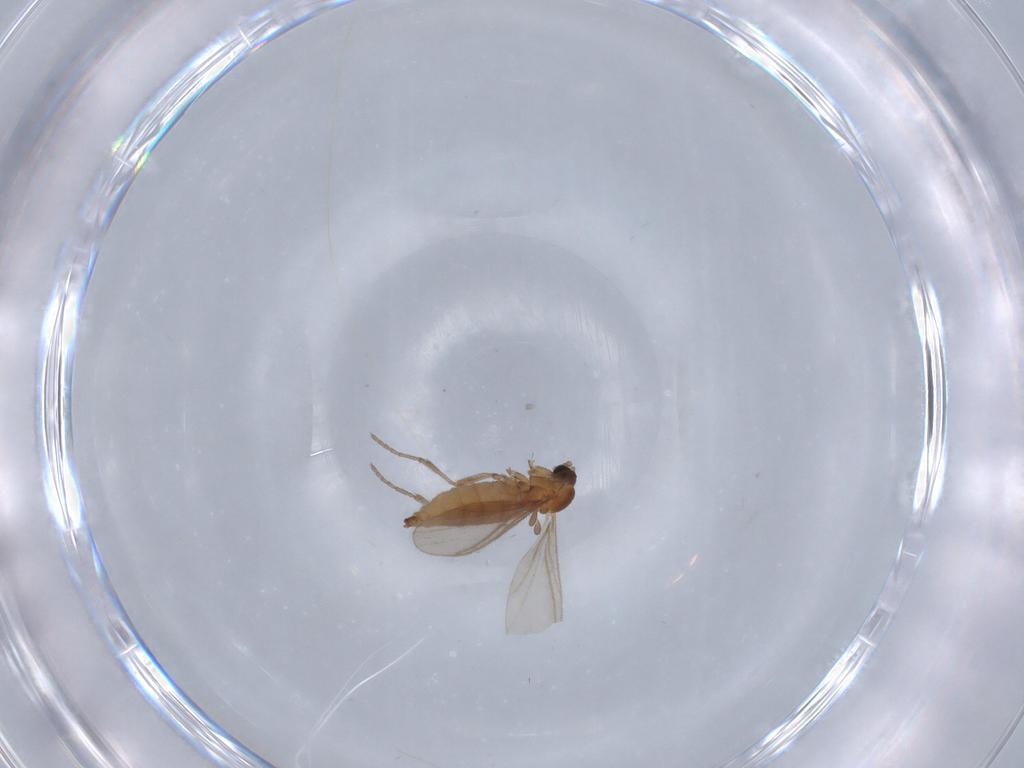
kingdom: Animalia
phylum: Arthropoda
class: Insecta
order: Diptera
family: Sciaridae
